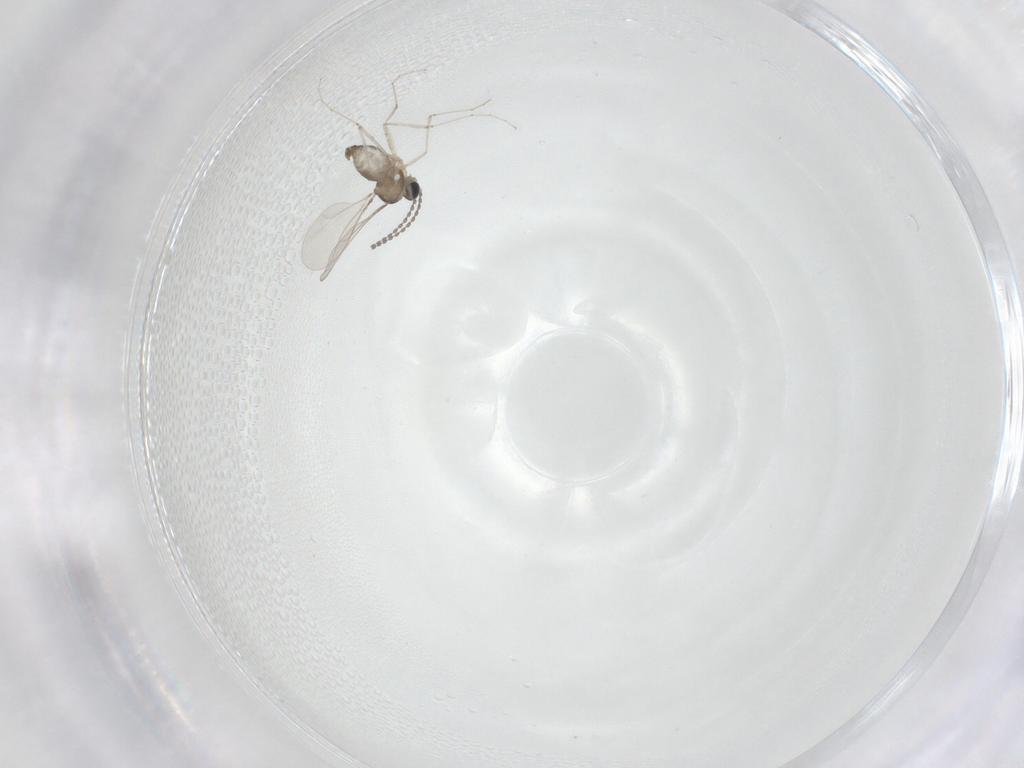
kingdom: Animalia
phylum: Arthropoda
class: Insecta
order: Diptera
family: Cecidomyiidae
